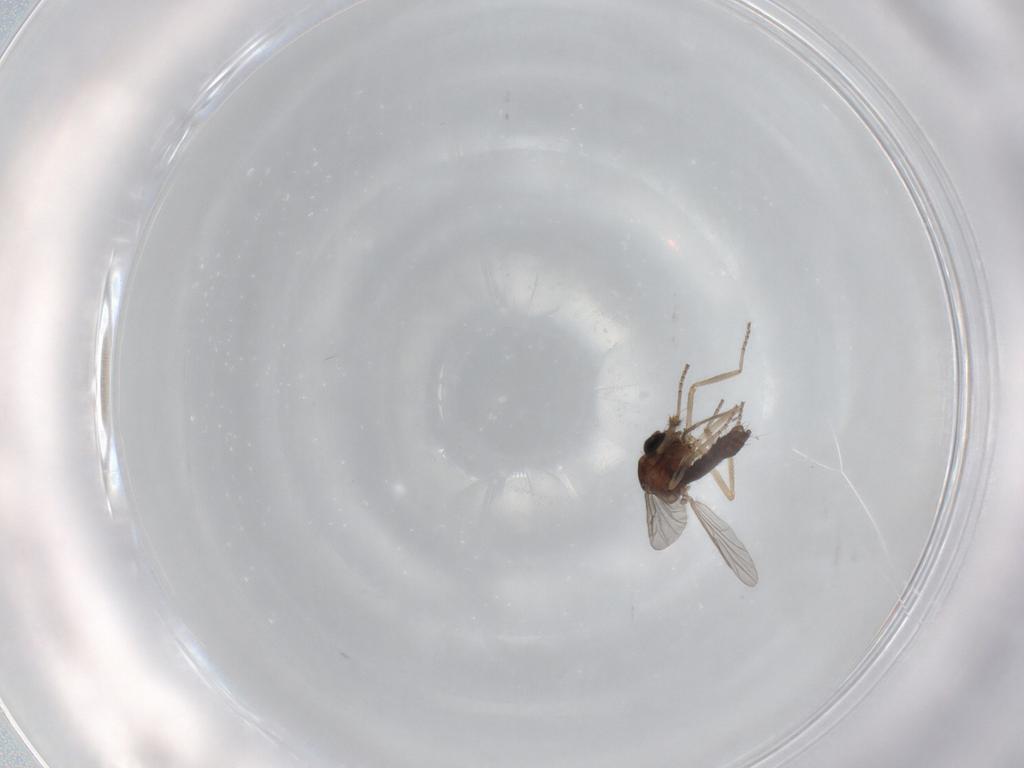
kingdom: Animalia
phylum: Arthropoda
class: Insecta
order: Diptera
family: Ceratopogonidae
